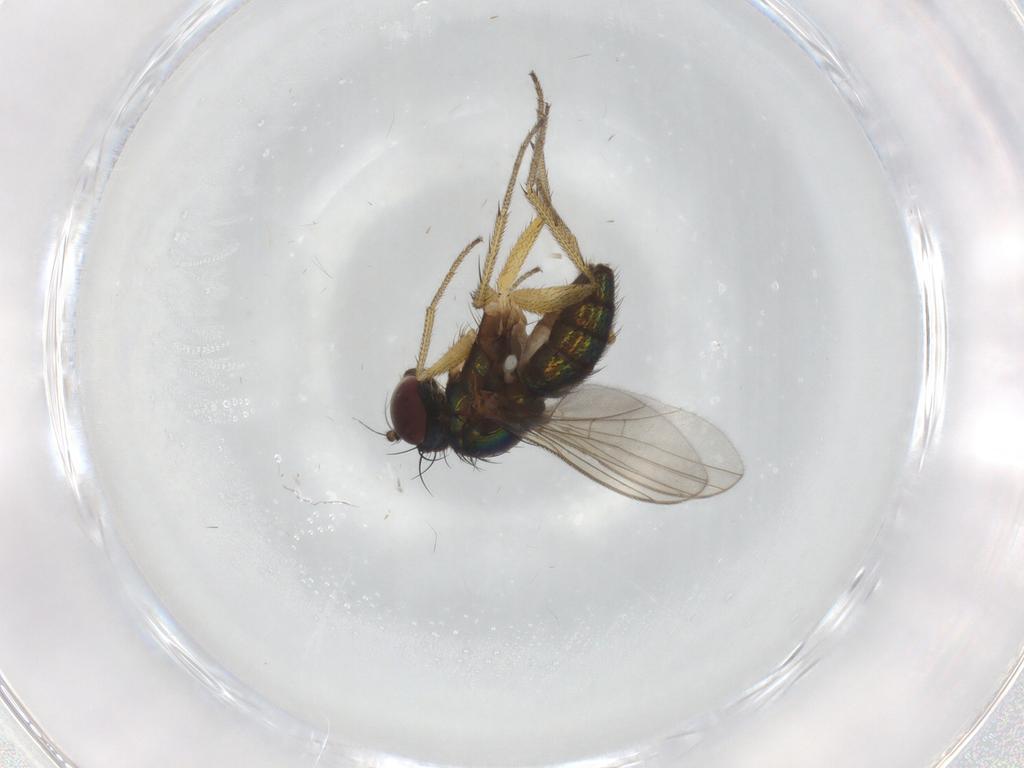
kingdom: Animalia
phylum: Arthropoda
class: Insecta
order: Diptera
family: Dolichopodidae
